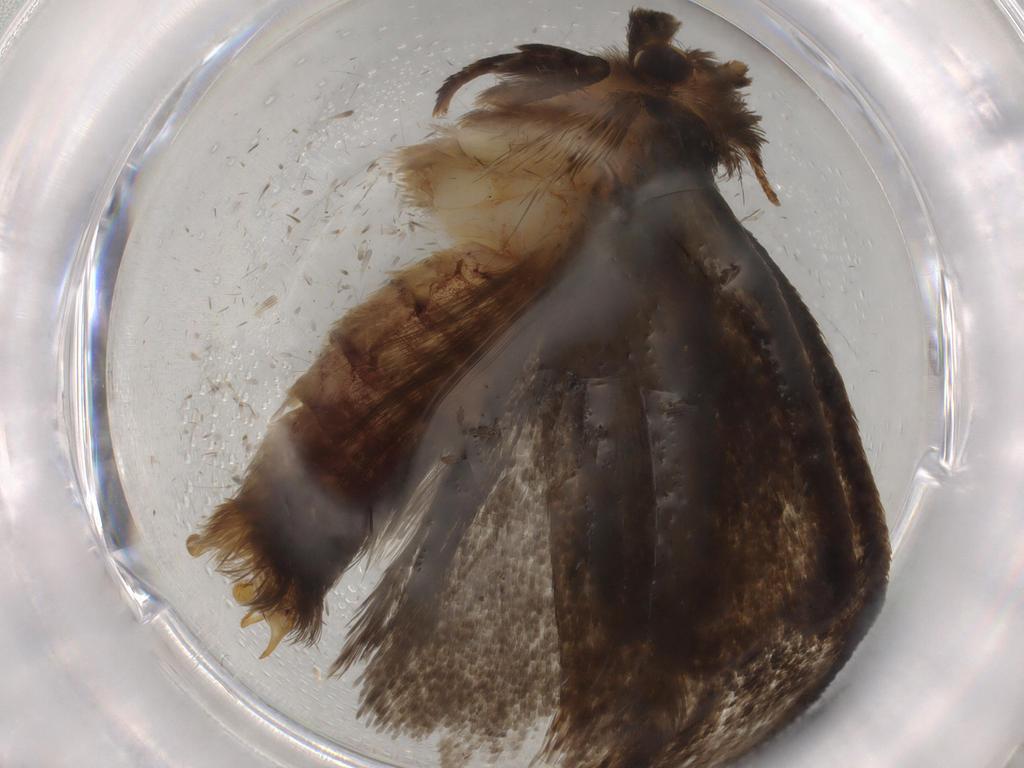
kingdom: Animalia
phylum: Arthropoda
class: Insecta
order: Lepidoptera
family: Tineidae
